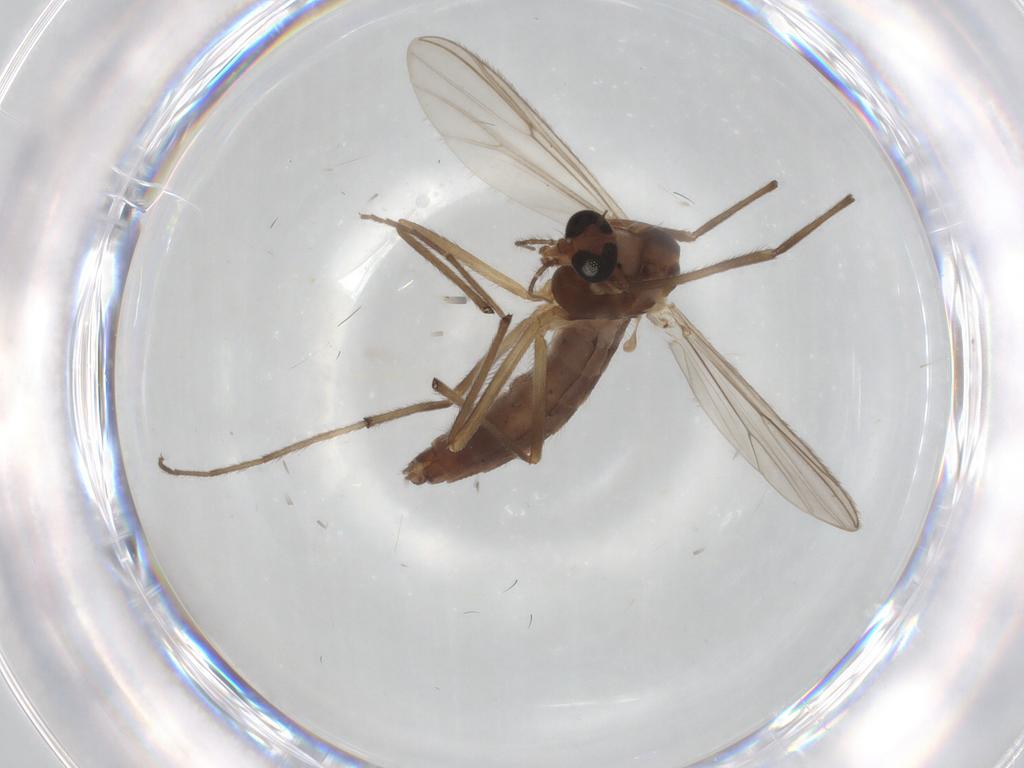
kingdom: Animalia
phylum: Arthropoda
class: Insecta
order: Diptera
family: Chironomidae
